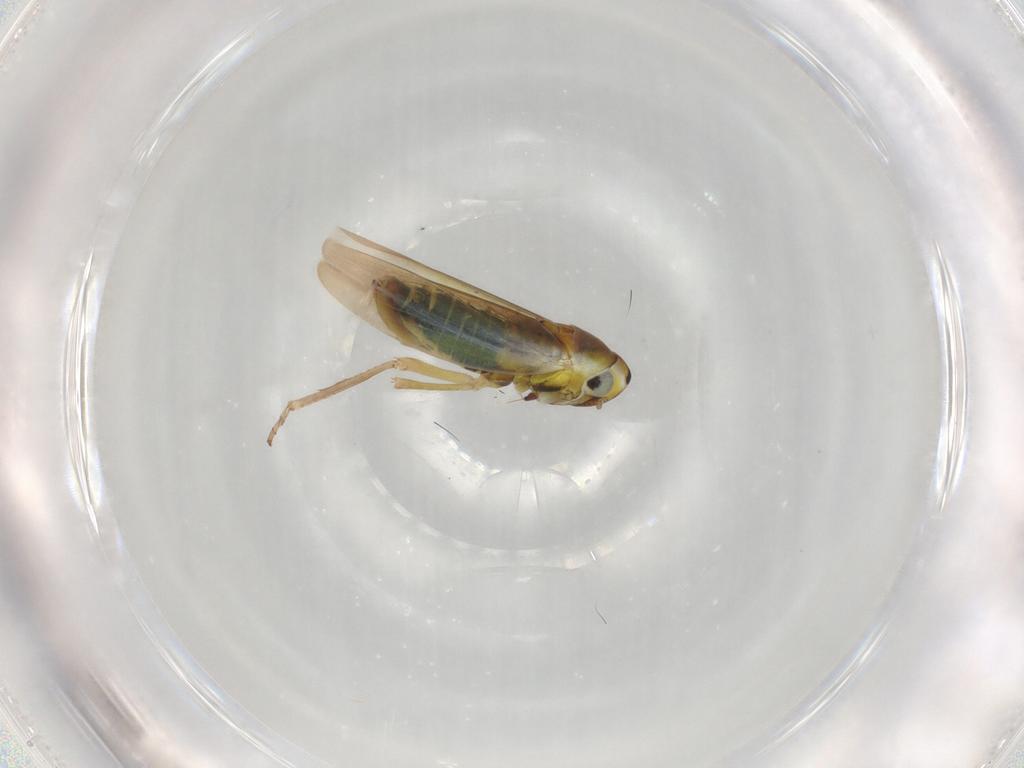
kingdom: Animalia
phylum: Arthropoda
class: Insecta
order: Hemiptera
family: Cicadellidae
